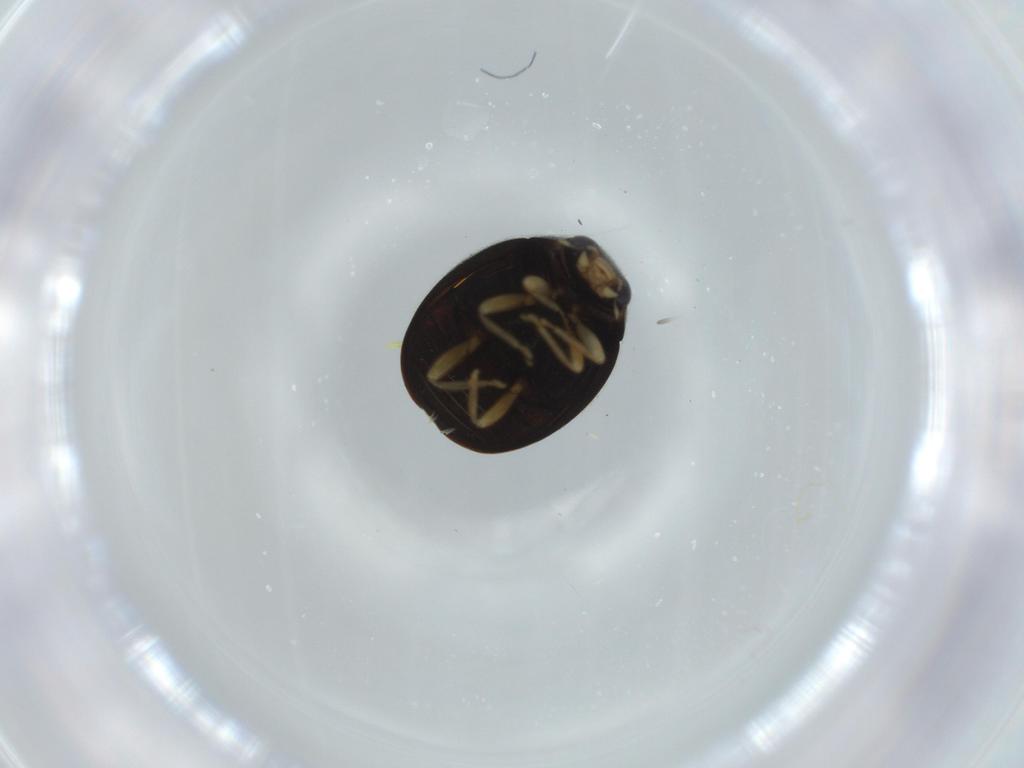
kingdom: Animalia
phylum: Arthropoda
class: Insecta
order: Coleoptera
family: Coccinellidae
